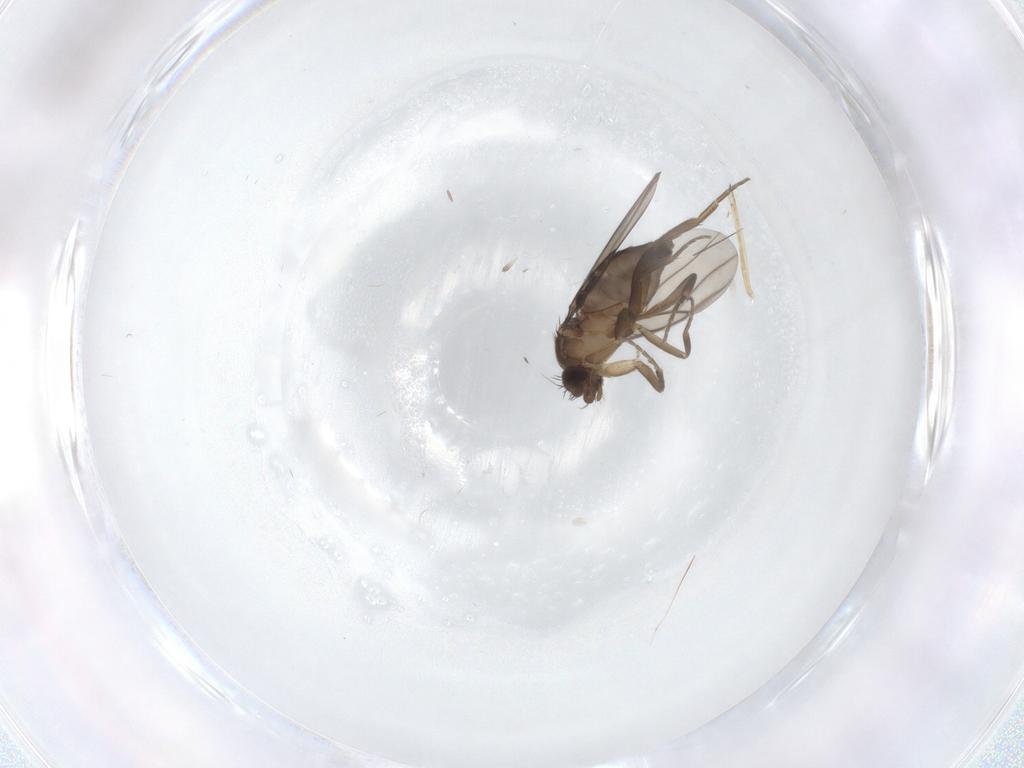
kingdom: Animalia
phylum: Arthropoda
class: Insecta
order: Diptera
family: Phoridae
